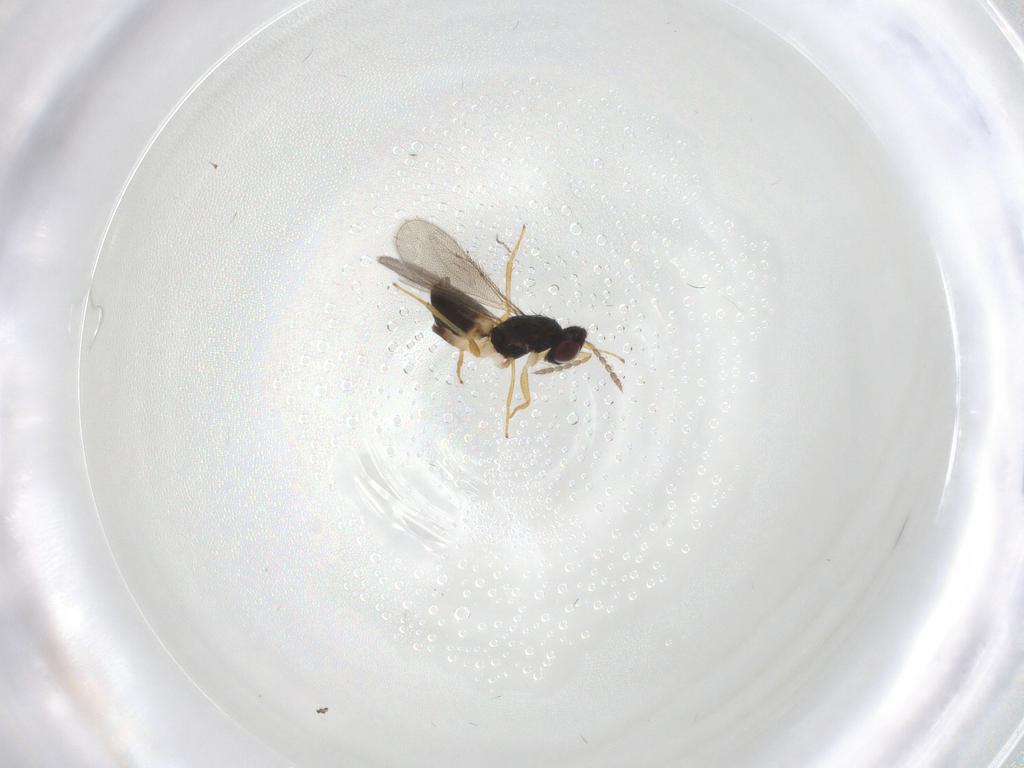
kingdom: Animalia
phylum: Arthropoda
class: Insecta
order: Hymenoptera
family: Eulophidae
